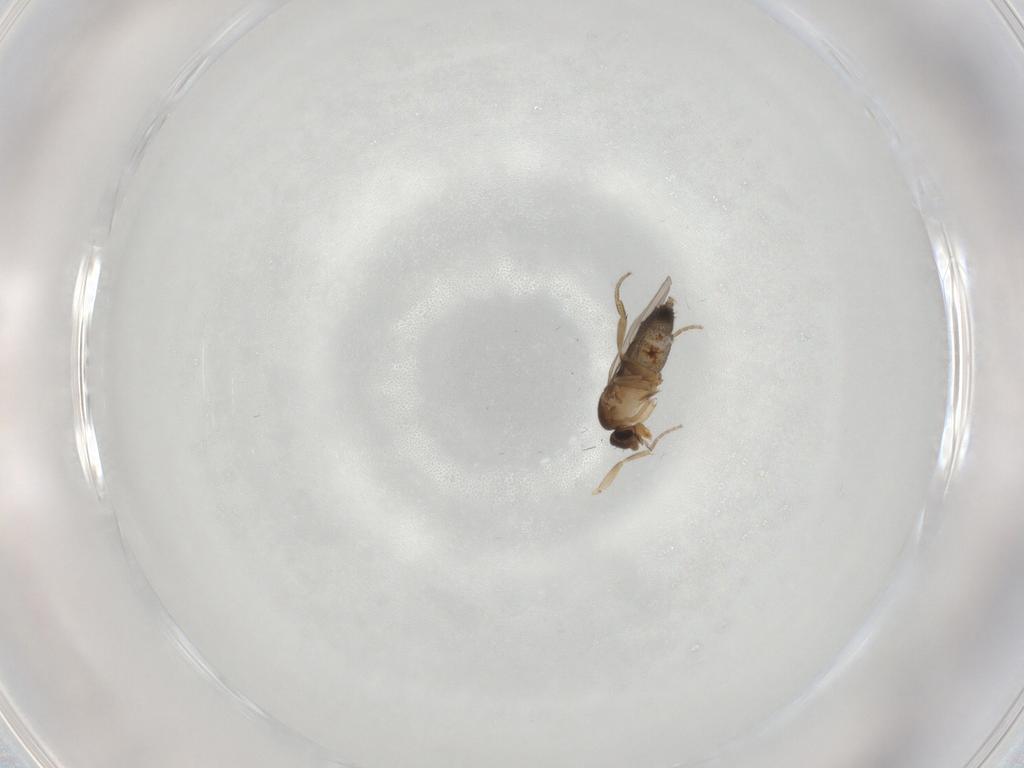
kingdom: Animalia
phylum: Arthropoda
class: Insecta
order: Diptera
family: Phoridae
